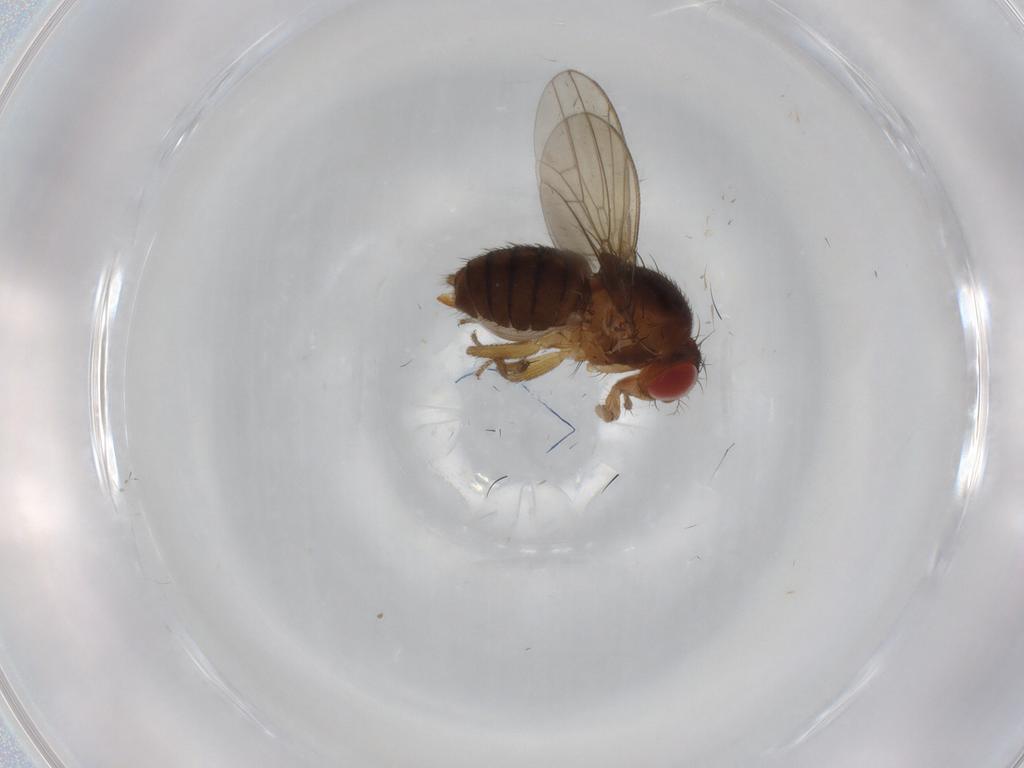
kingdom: Animalia
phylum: Arthropoda
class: Insecta
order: Diptera
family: Drosophilidae
